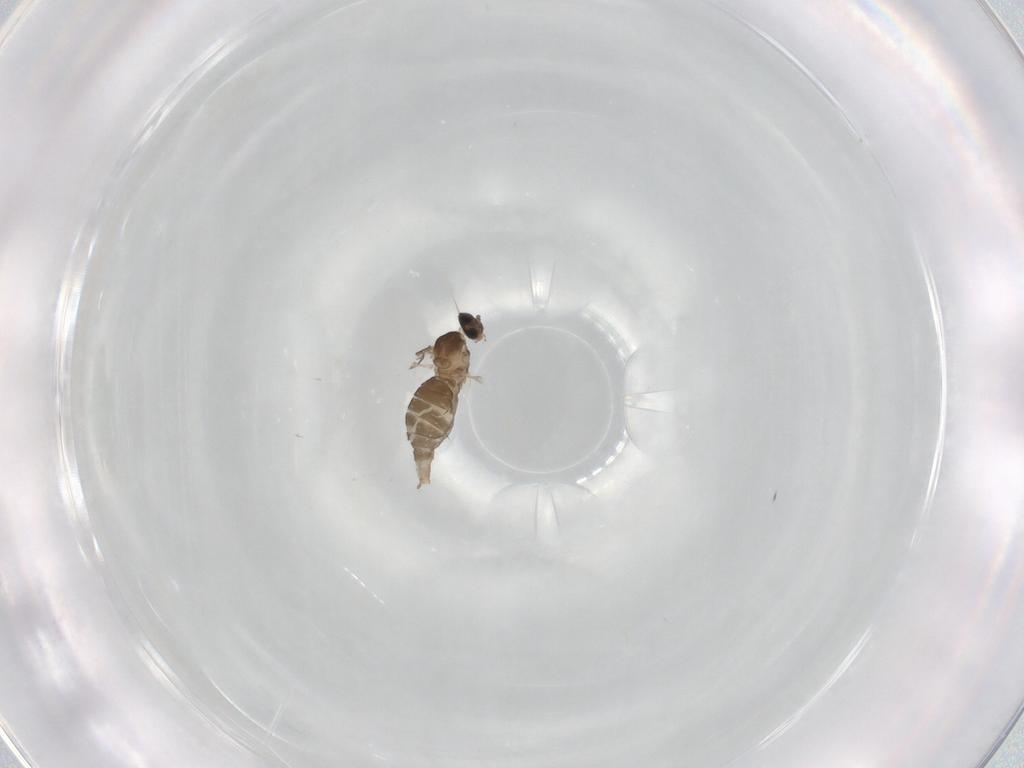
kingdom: Animalia
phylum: Arthropoda
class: Insecta
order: Diptera
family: Cecidomyiidae
